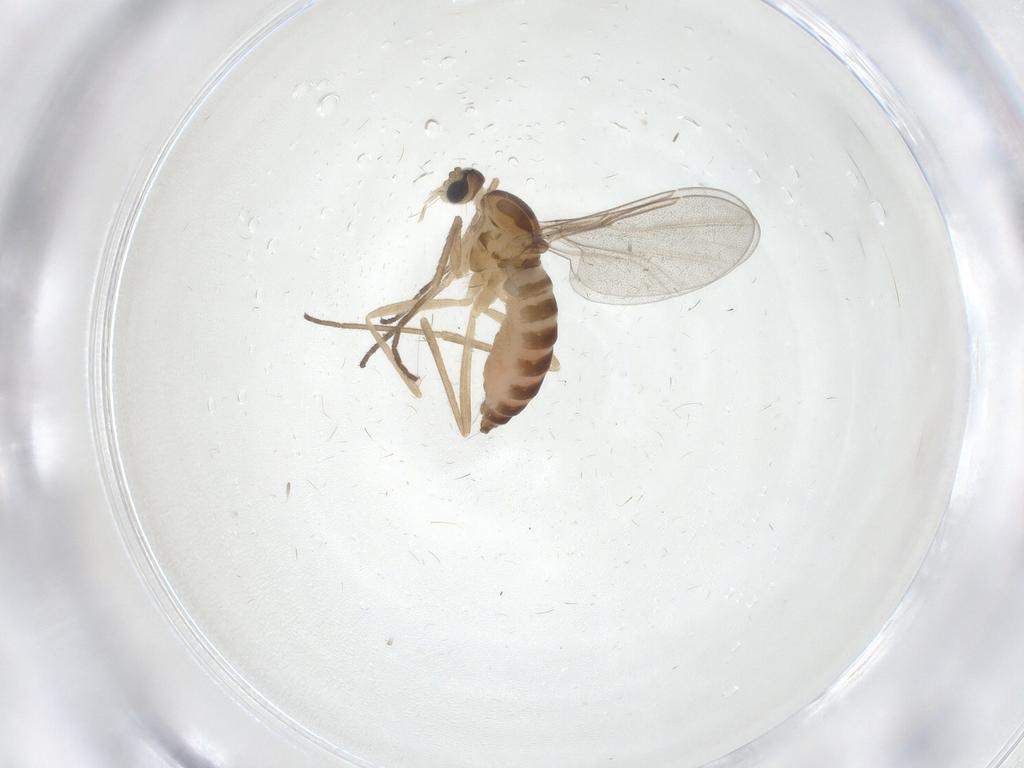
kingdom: Animalia
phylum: Arthropoda
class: Insecta
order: Diptera
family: Cecidomyiidae
